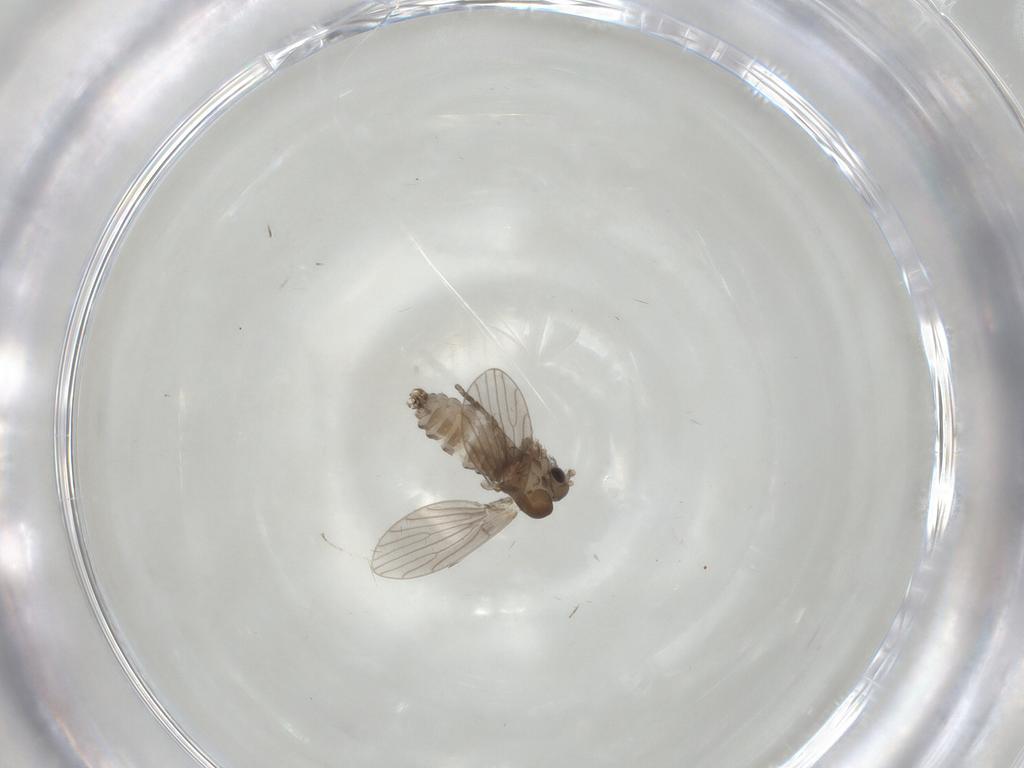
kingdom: Animalia
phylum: Arthropoda
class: Insecta
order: Diptera
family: Psychodidae
